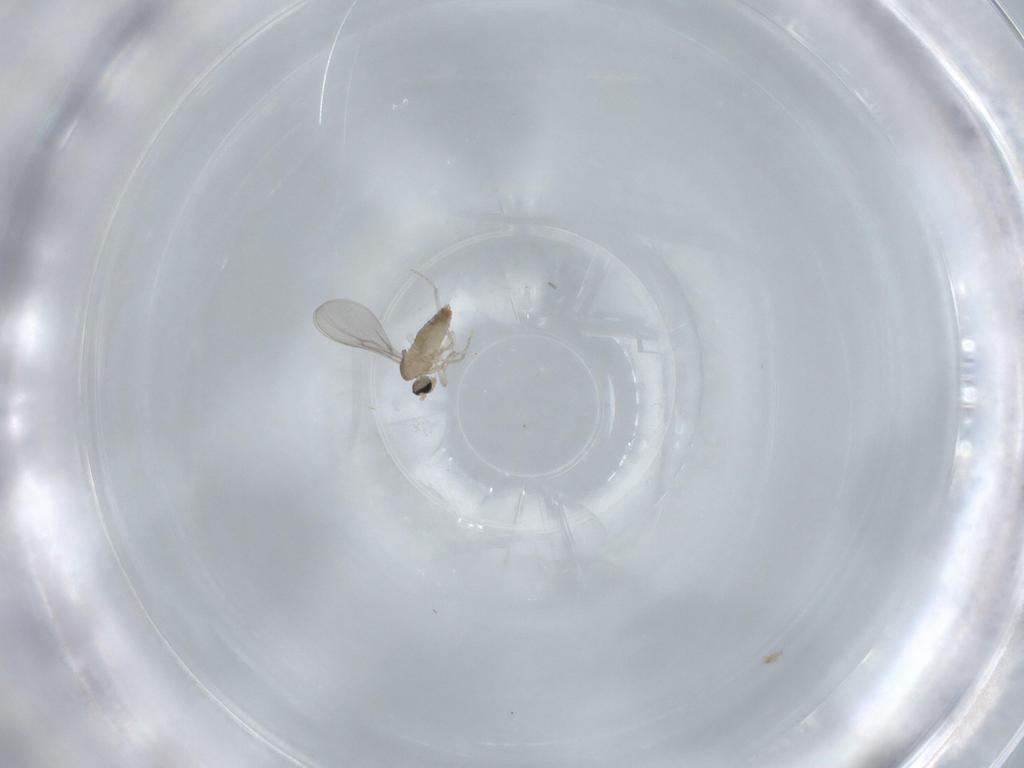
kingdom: Animalia
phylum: Arthropoda
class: Insecta
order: Diptera
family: Cecidomyiidae
